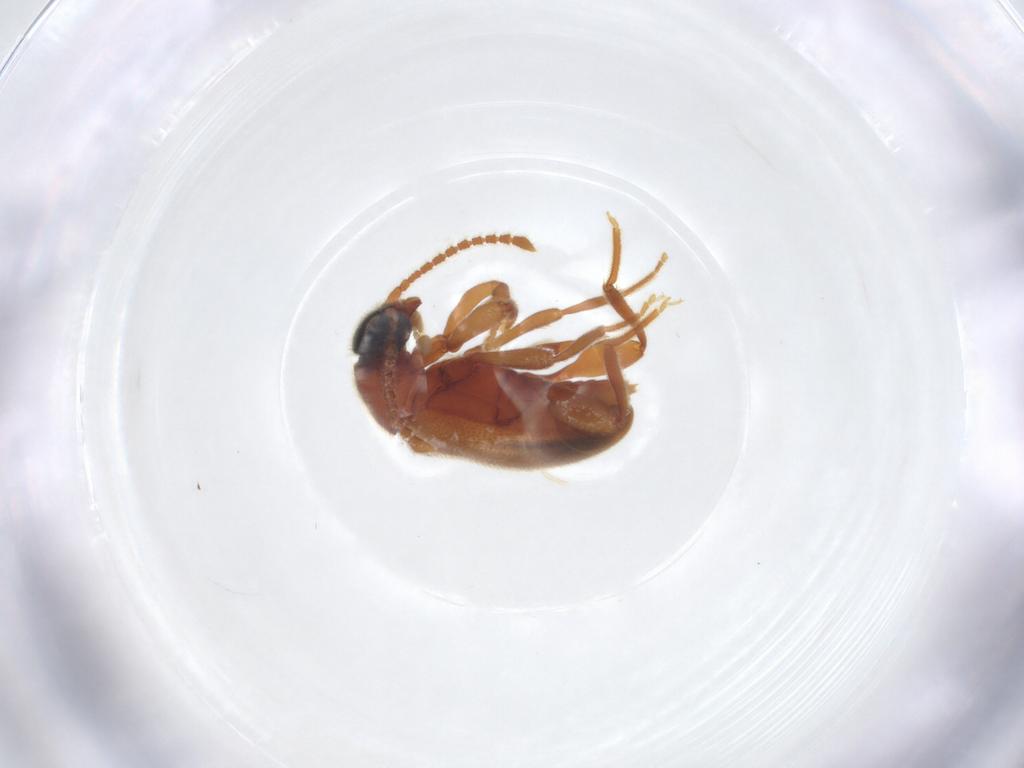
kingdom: Animalia
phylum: Arthropoda
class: Insecta
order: Coleoptera
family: Aderidae
